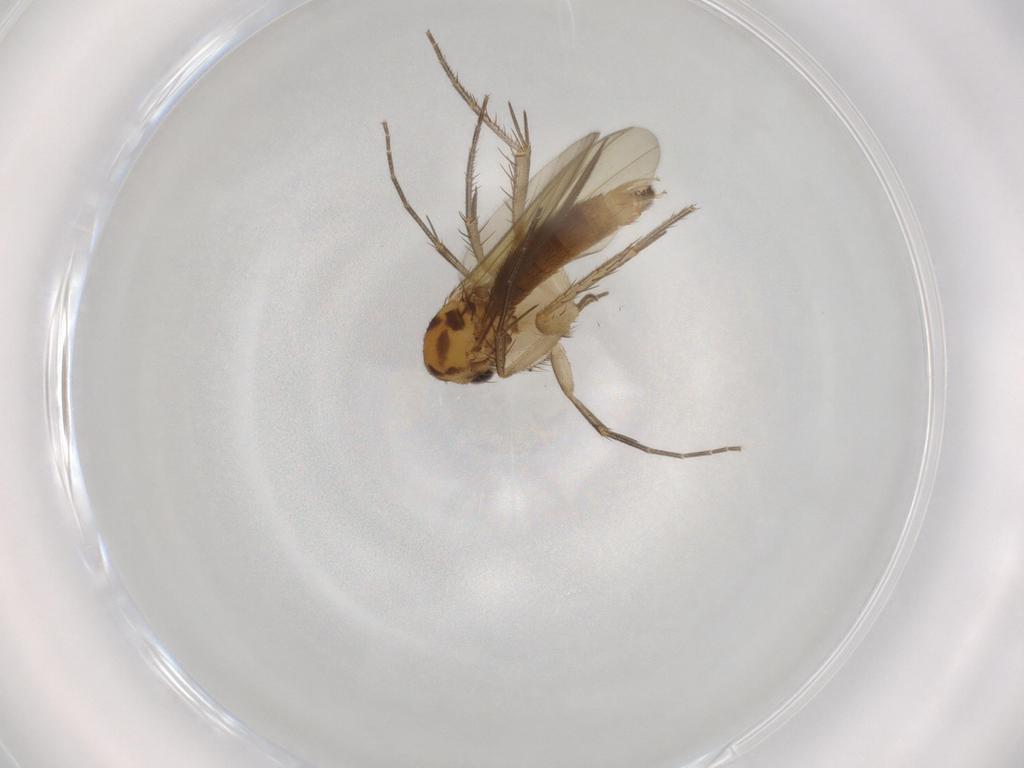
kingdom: Animalia
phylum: Arthropoda
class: Insecta
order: Diptera
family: Chironomidae
